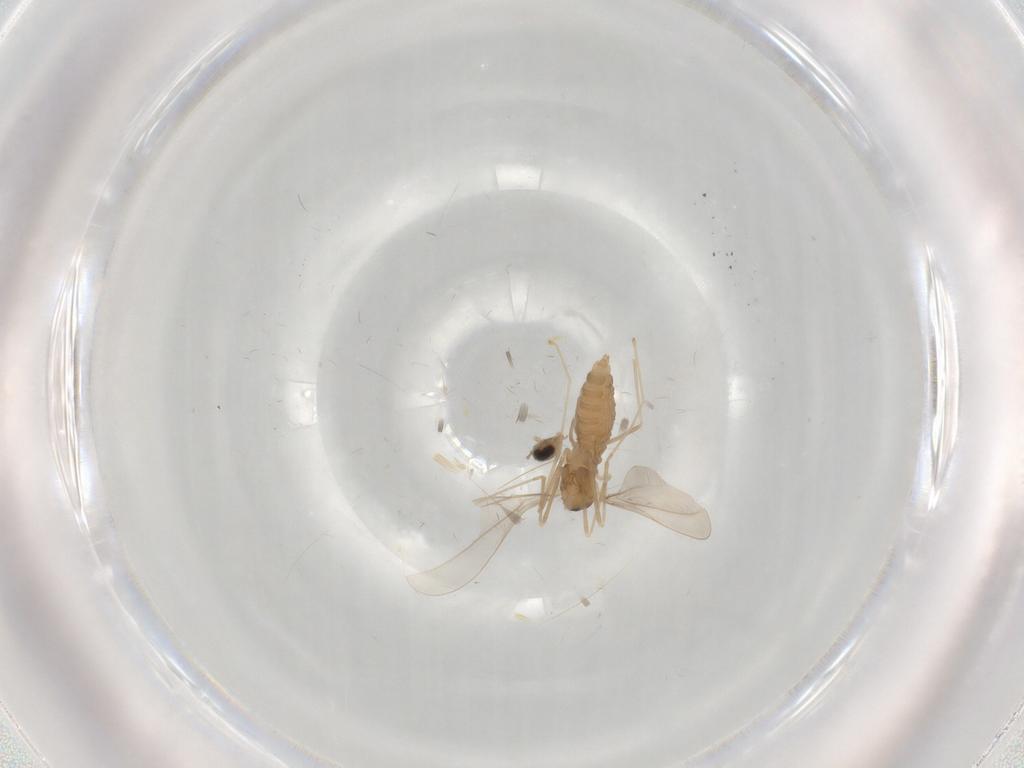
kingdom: Animalia
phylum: Arthropoda
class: Insecta
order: Diptera
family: Cecidomyiidae
